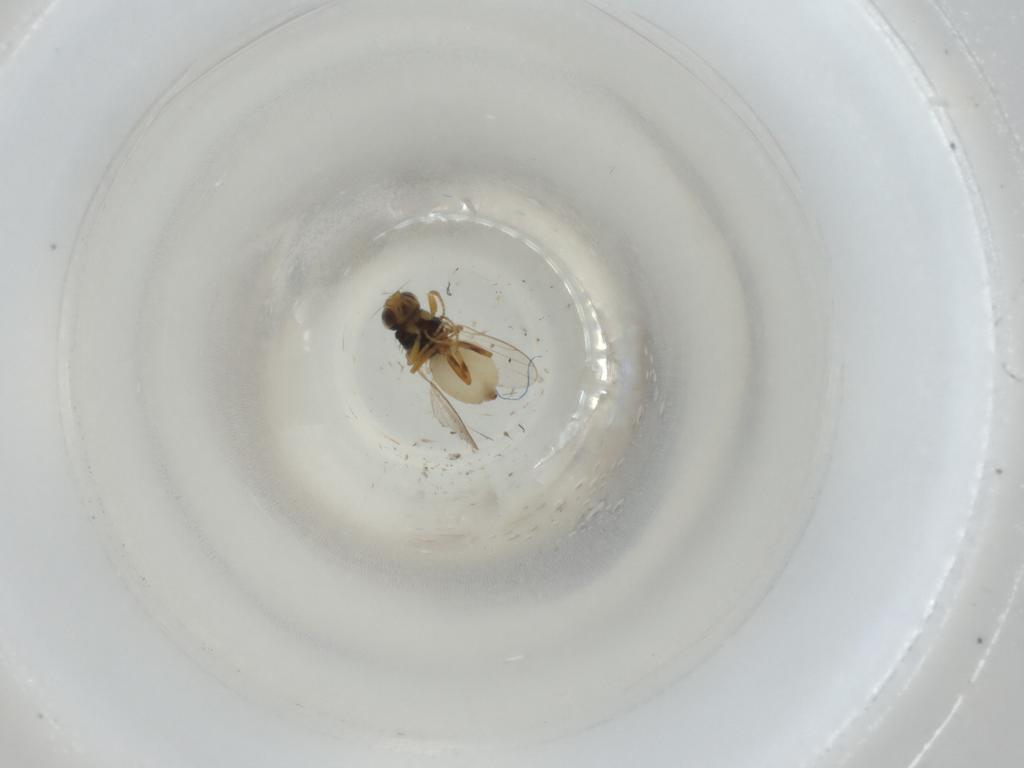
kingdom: Animalia
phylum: Arthropoda
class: Insecta
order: Diptera
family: Chloropidae
